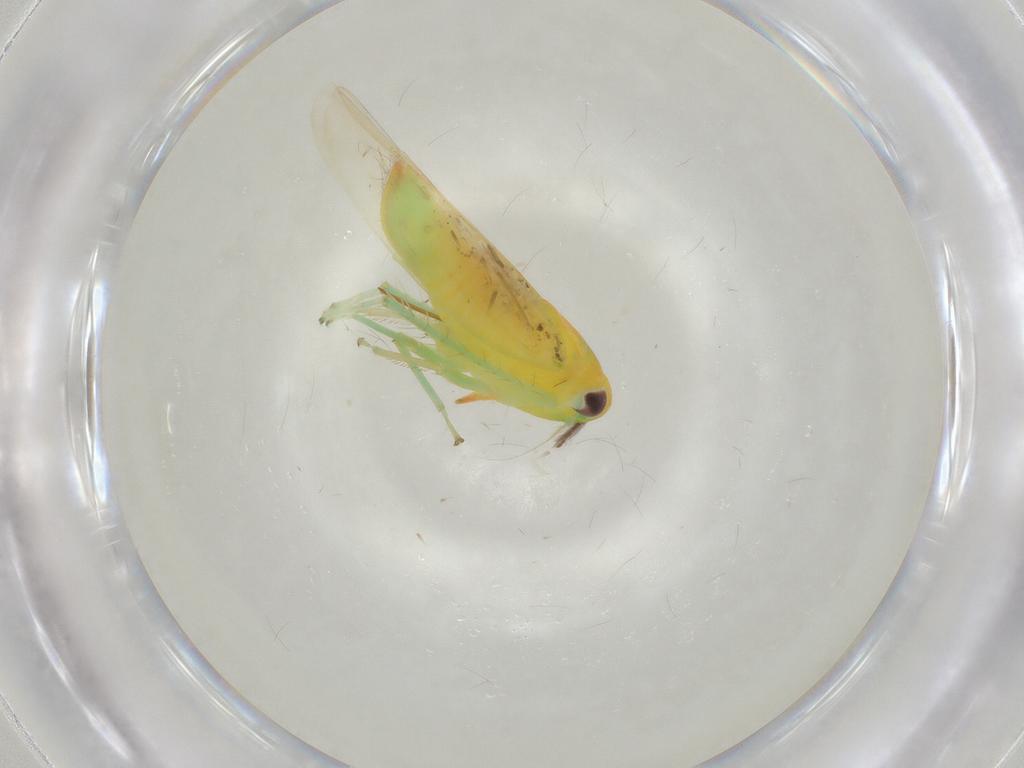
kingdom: Animalia
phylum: Arthropoda
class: Insecta
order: Hemiptera
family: Cicadellidae
